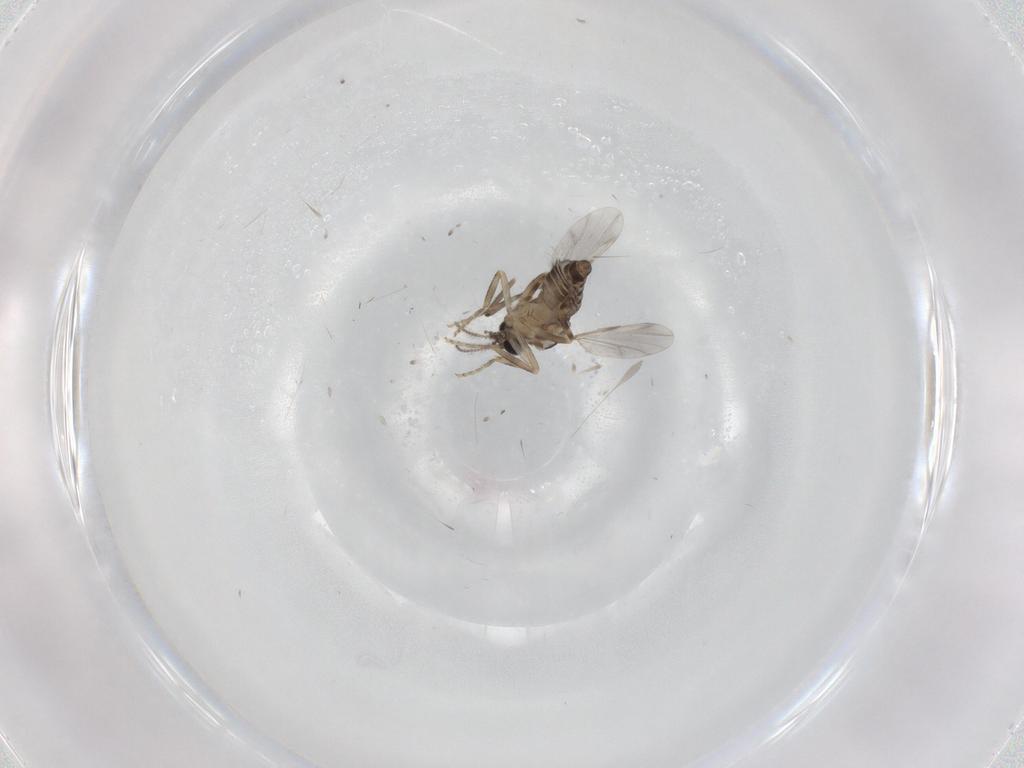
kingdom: Animalia
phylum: Arthropoda
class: Insecta
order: Diptera
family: Ceratopogonidae
